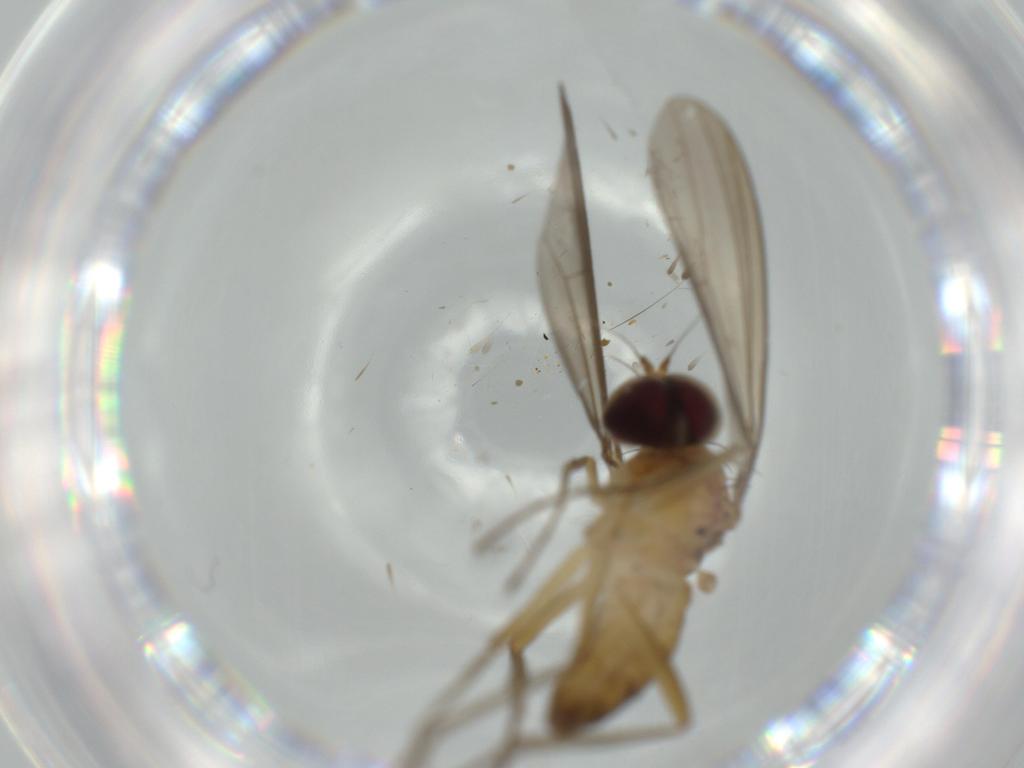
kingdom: Animalia
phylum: Arthropoda
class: Insecta
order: Diptera
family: Dolichopodidae
